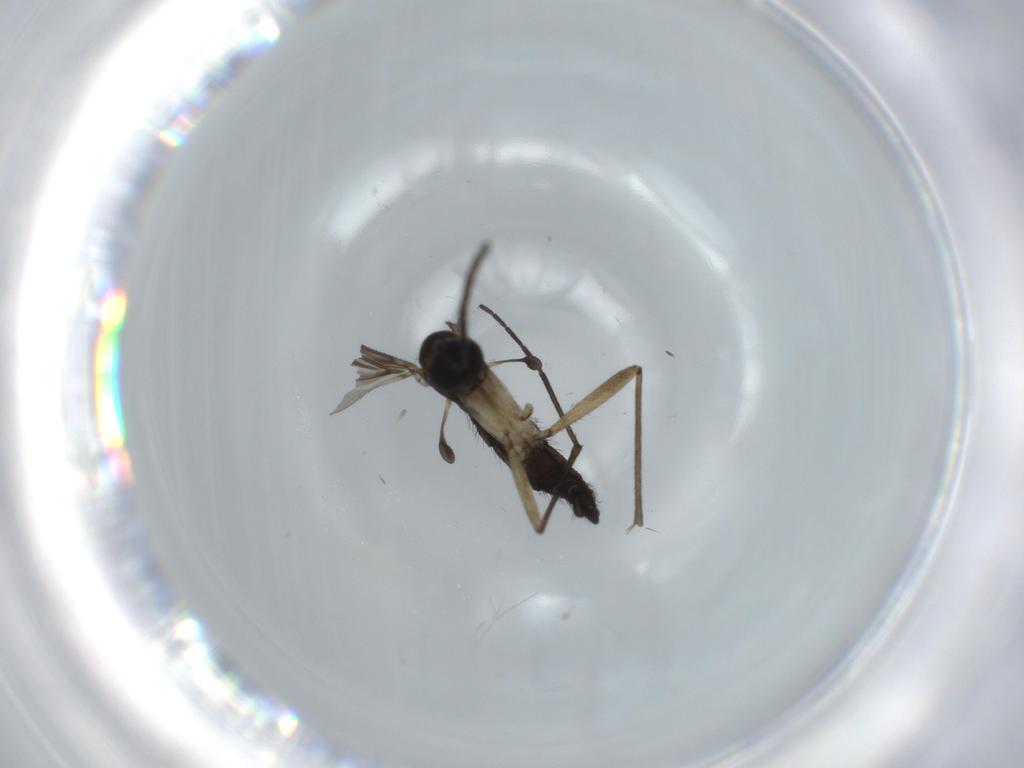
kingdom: Animalia
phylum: Arthropoda
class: Insecta
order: Diptera
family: Sciaridae
